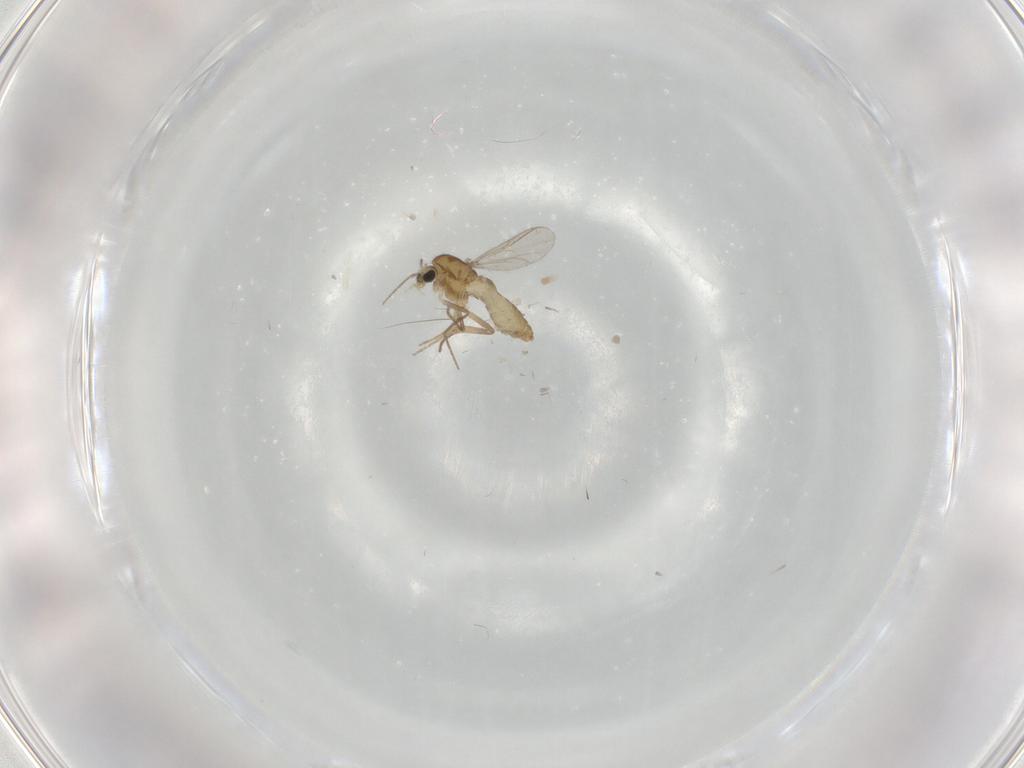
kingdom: Animalia
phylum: Arthropoda
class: Insecta
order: Diptera
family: Chironomidae
